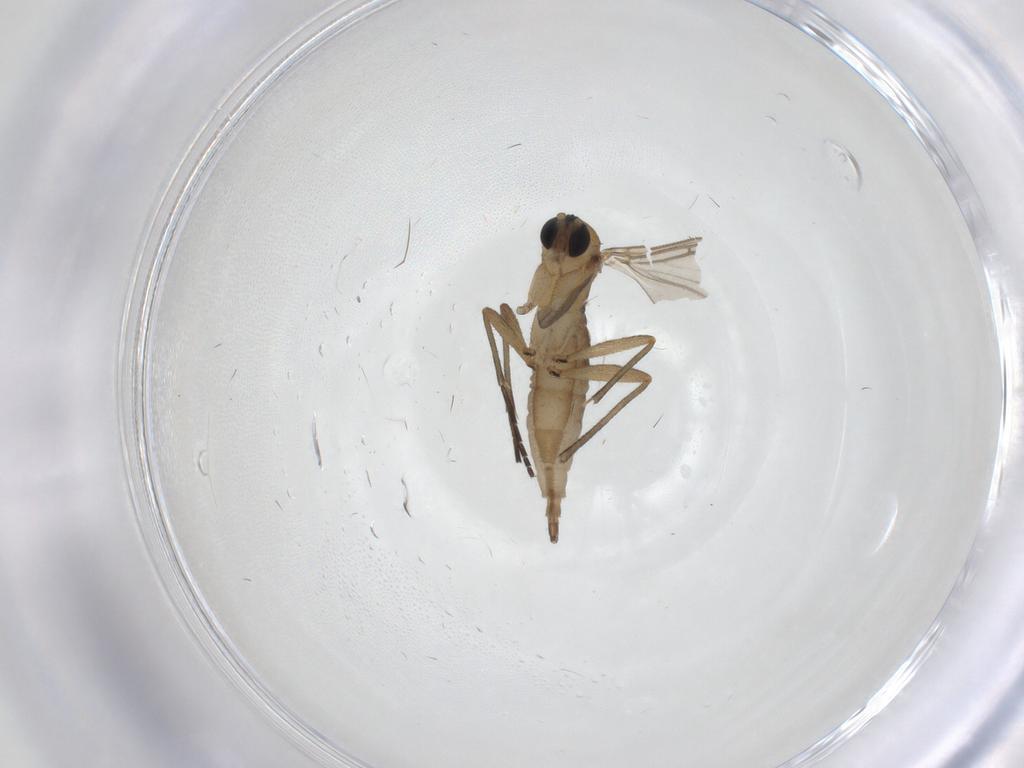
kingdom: Animalia
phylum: Arthropoda
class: Insecta
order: Diptera
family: Sciaridae
